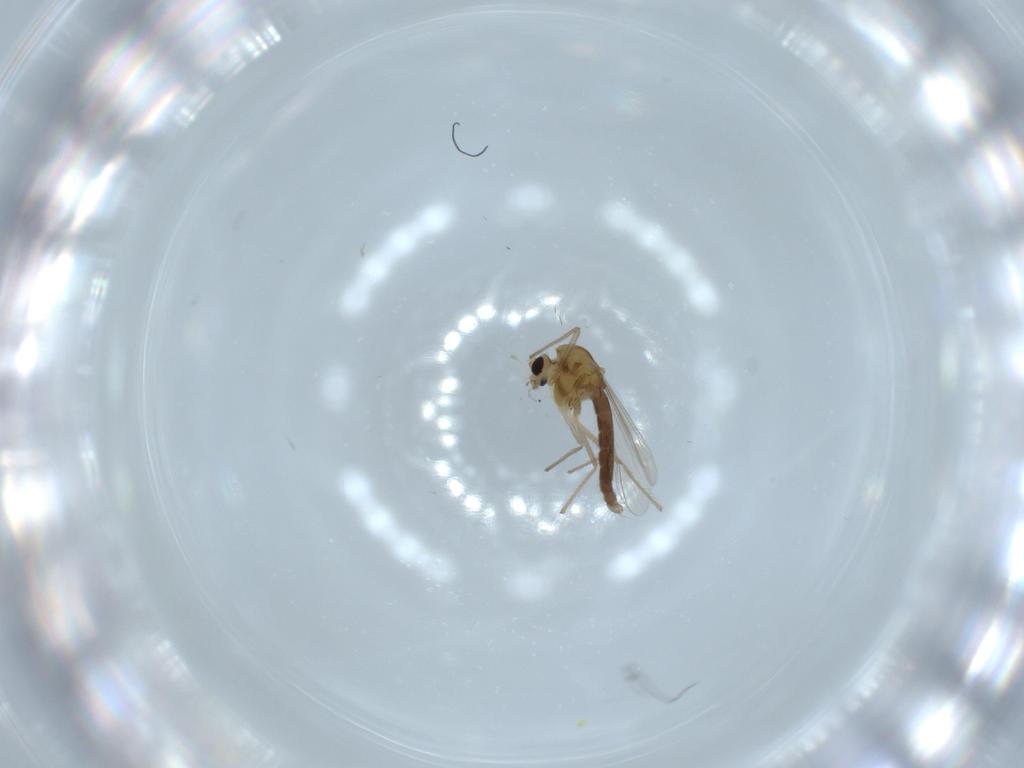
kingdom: Animalia
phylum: Arthropoda
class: Insecta
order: Diptera
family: Chironomidae
